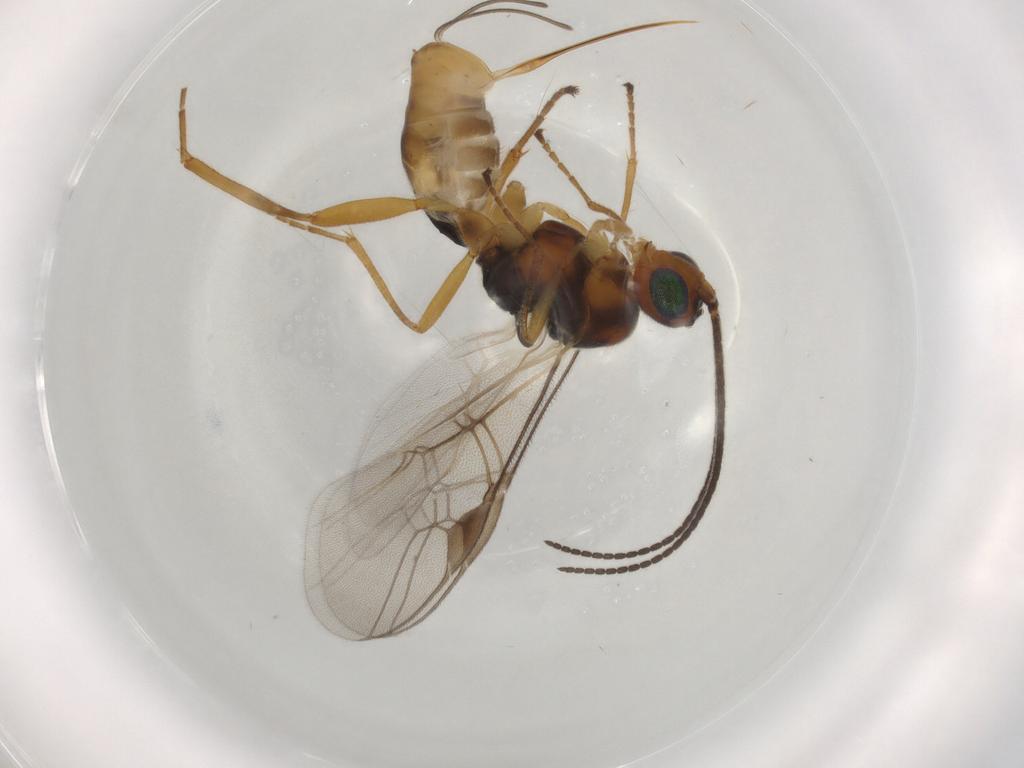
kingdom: Animalia
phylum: Arthropoda
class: Insecta
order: Hymenoptera
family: Braconidae
